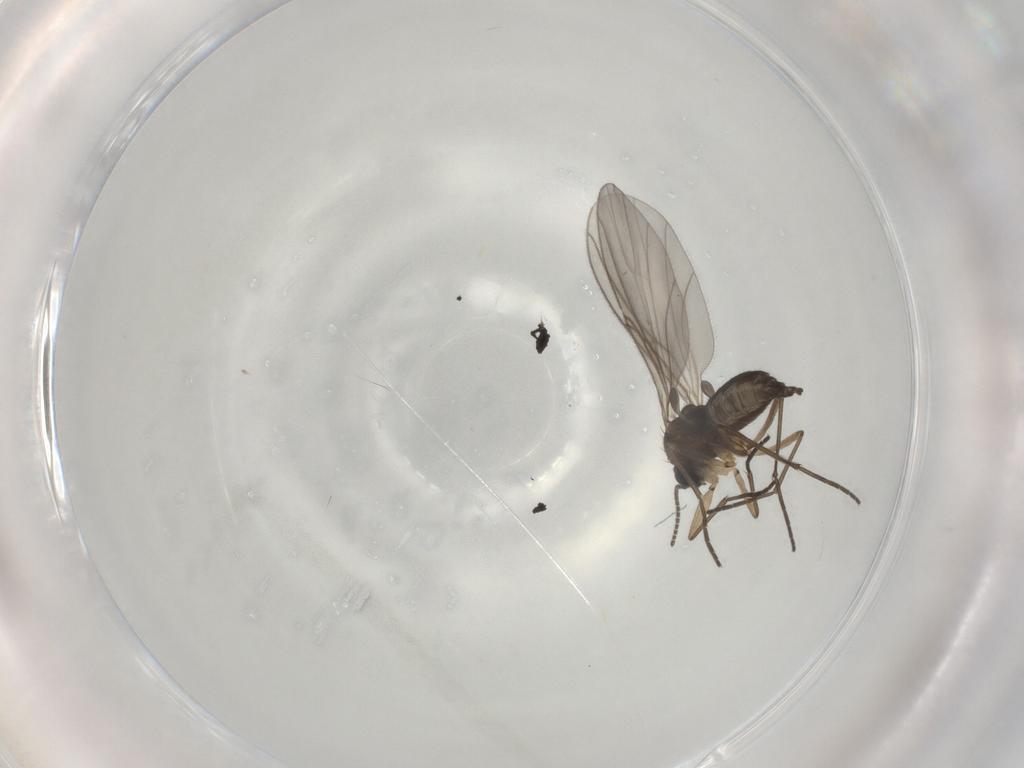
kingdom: Animalia
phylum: Arthropoda
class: Insecta
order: Diptera
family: Sciaridae
